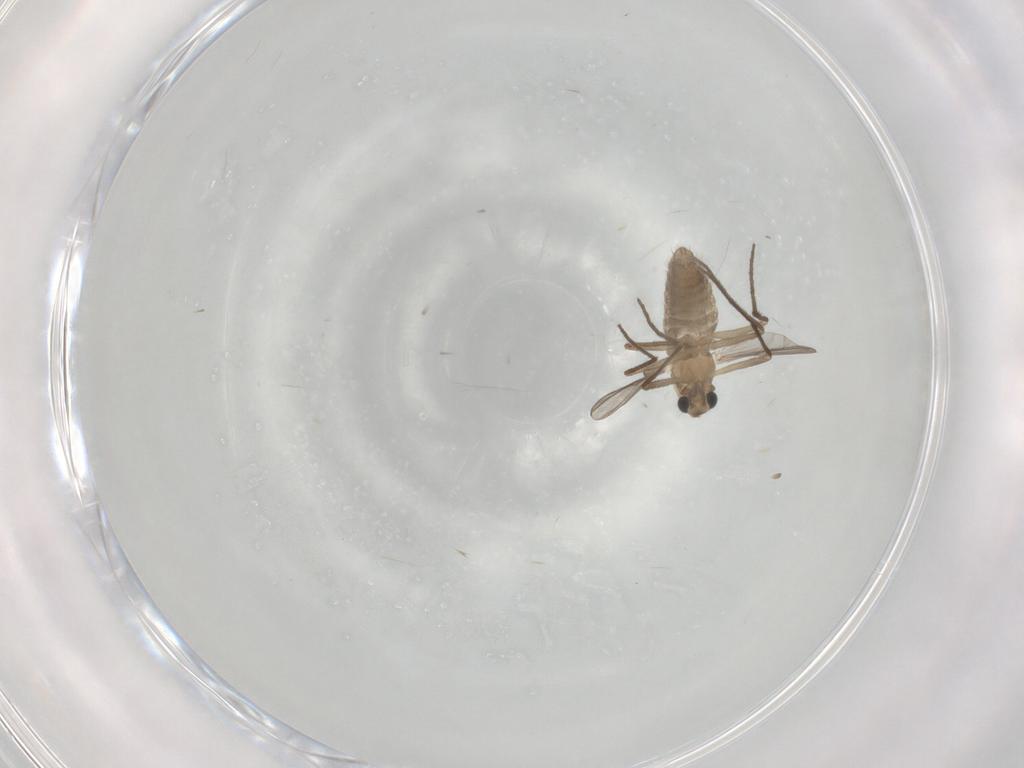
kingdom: Animalia
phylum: Arthropoda
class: Insecta
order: Diptera
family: Chironomidae
